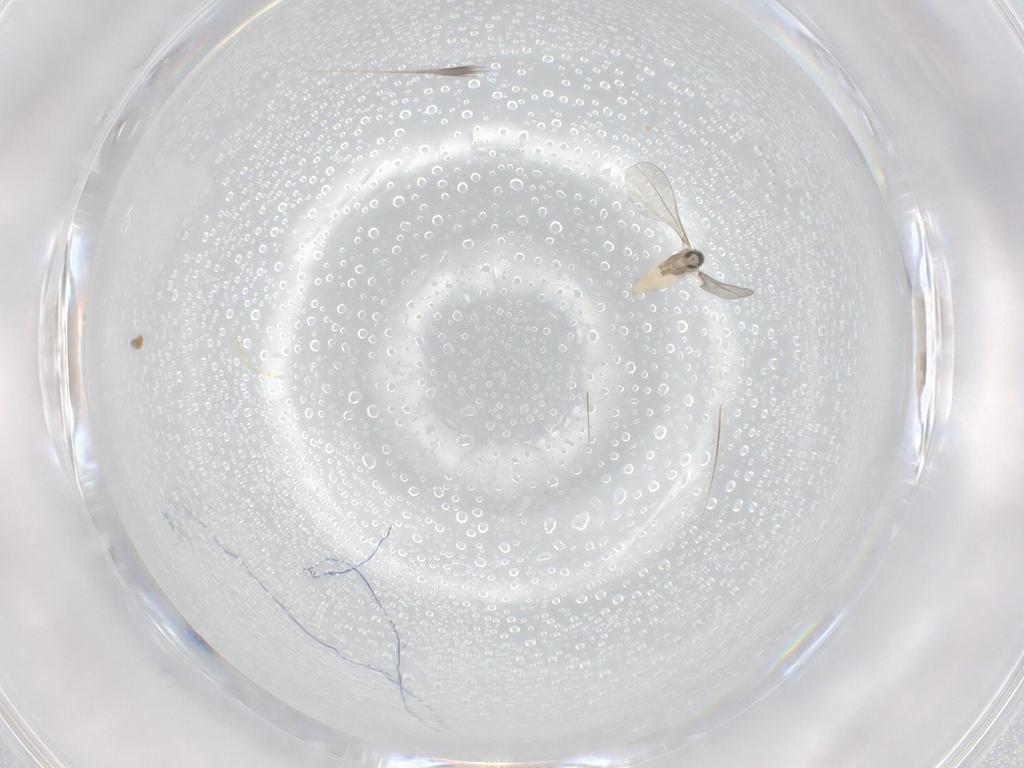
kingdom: Animalia
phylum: Arthropoda
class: Insecta
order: Diptera
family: Cecidomyiidae
